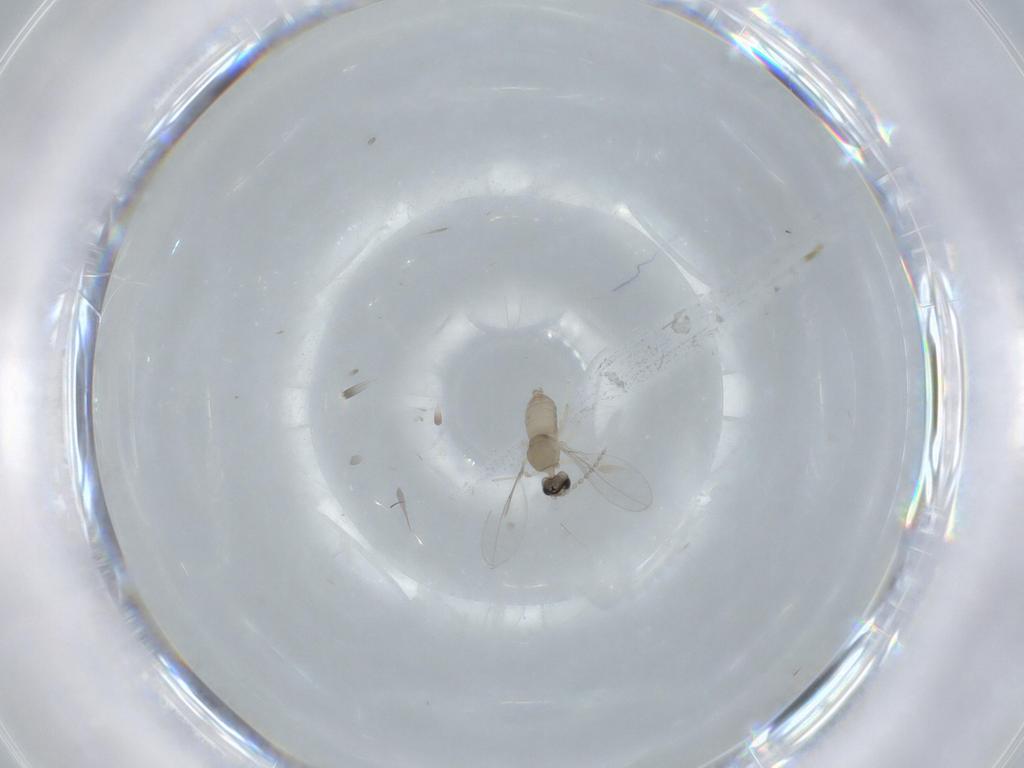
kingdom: Animalia
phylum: Arthropoda
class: Insecta
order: Diptera
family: Cecidomyiidae
